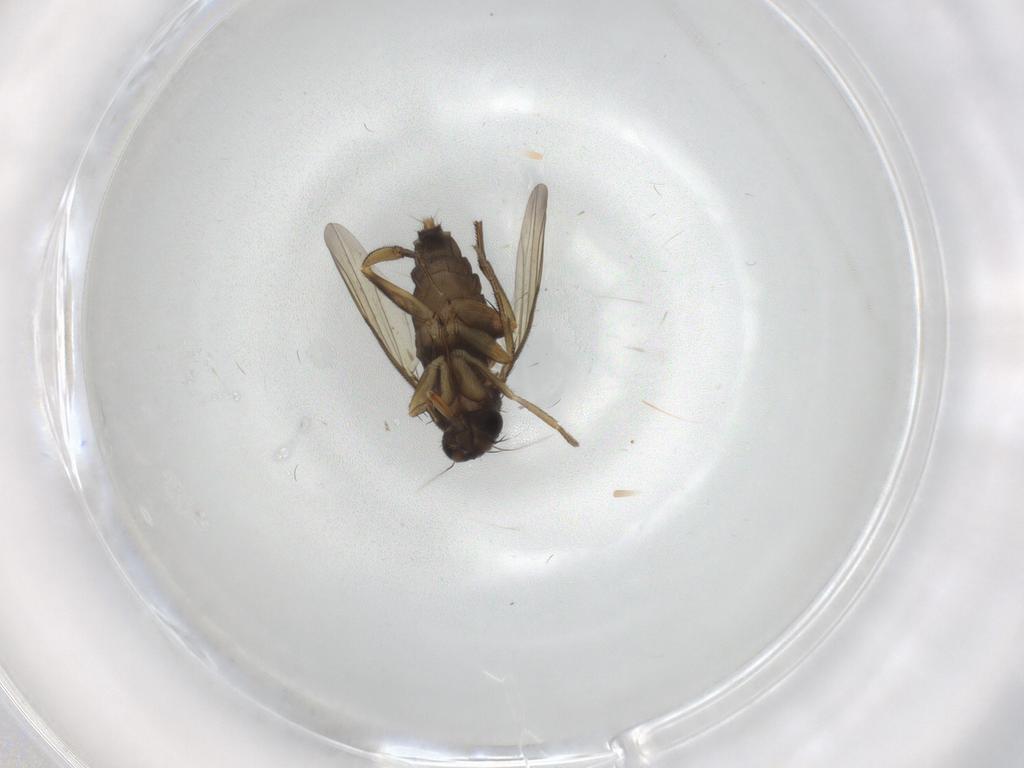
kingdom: Animalia
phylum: Arthropoda
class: Insecta
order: Diptera
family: Phoridae
